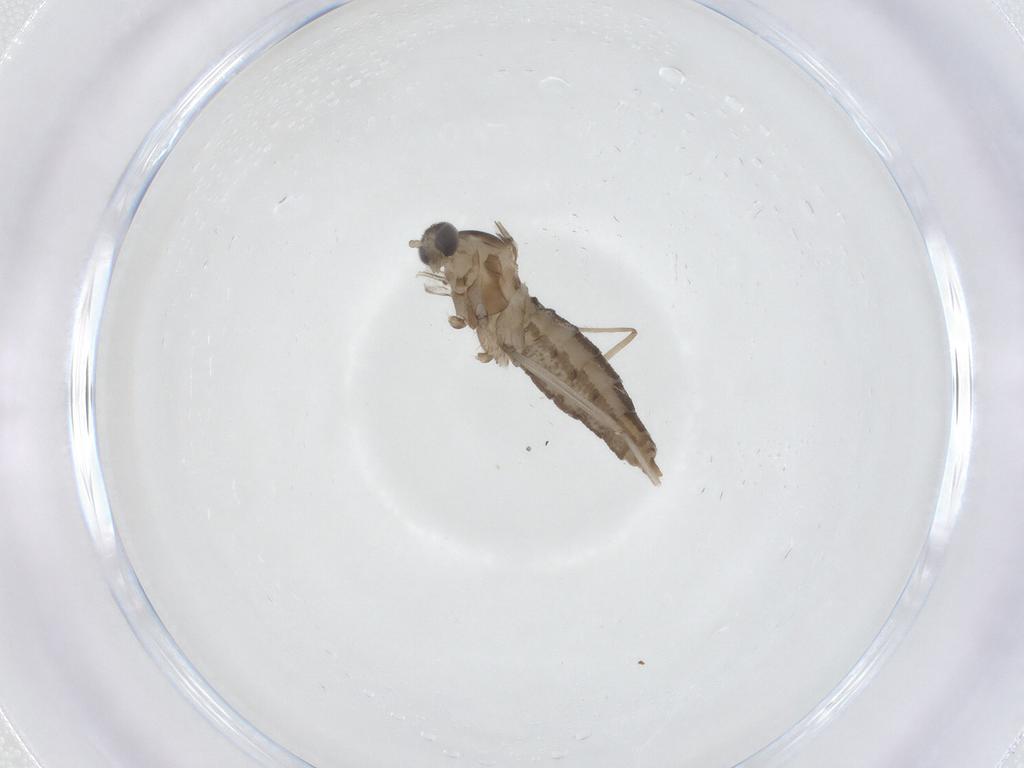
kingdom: Animalia
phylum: Arthropoda
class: Insecta
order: Diptera
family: Cecidomyiidae
